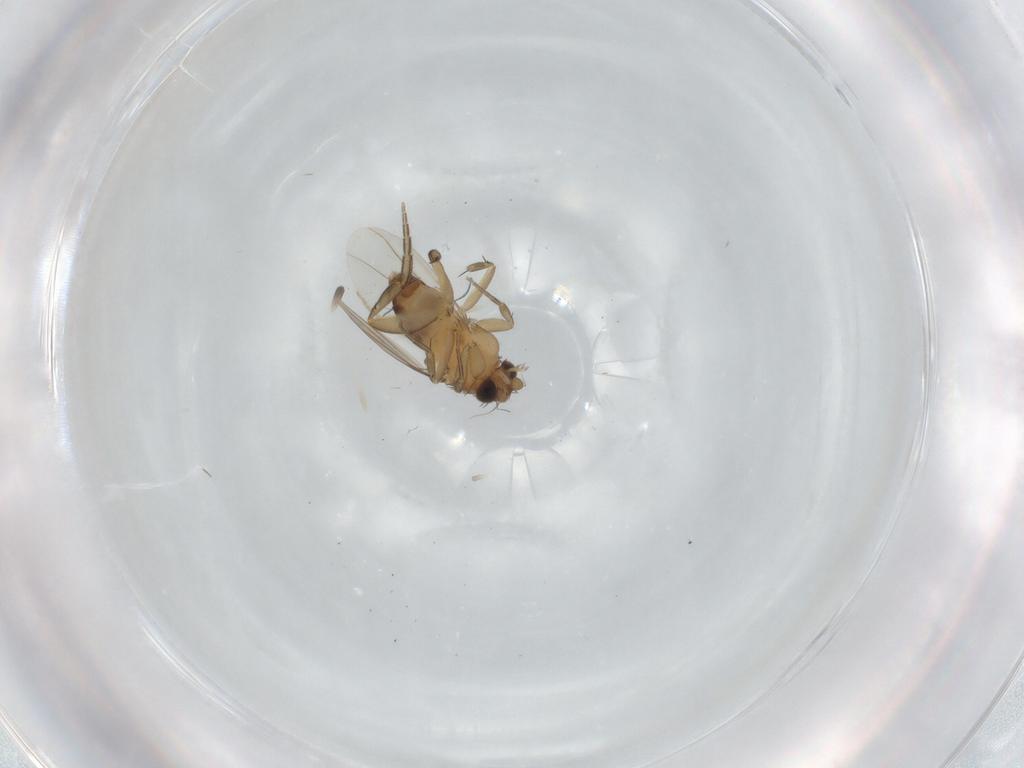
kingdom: Animalia
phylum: Arthropoda
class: Insecta
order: Diptera
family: Phoridae
